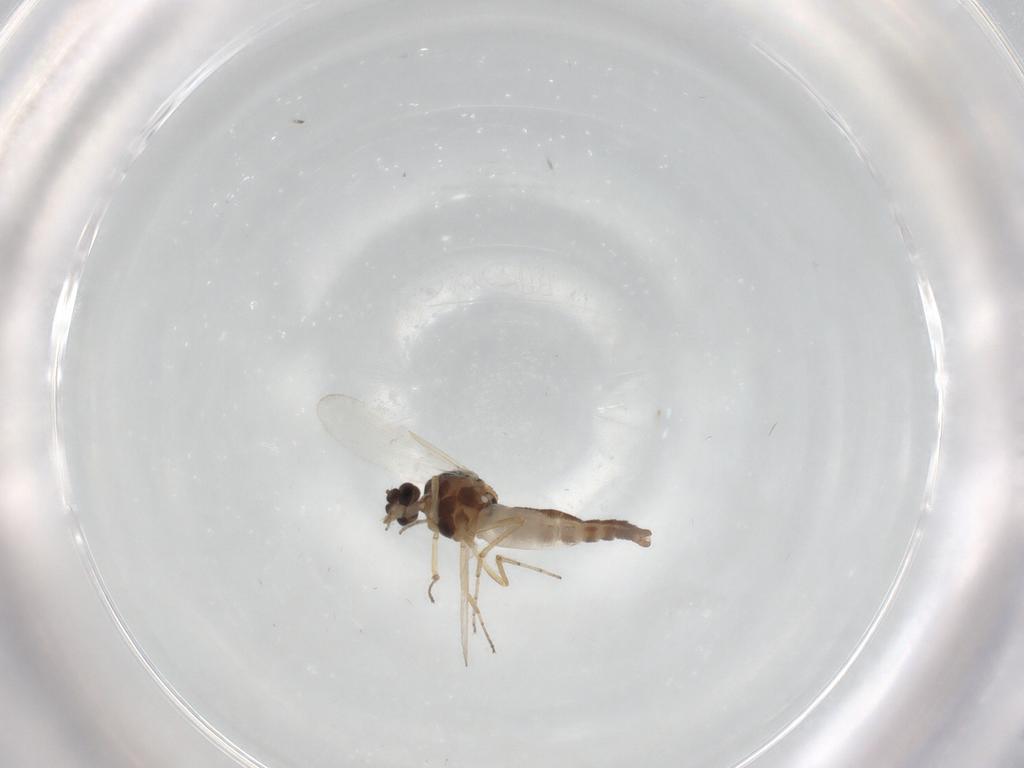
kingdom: Animalia
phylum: Arthropoda
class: Insecta
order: Diptera
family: Ceratopogonidae
